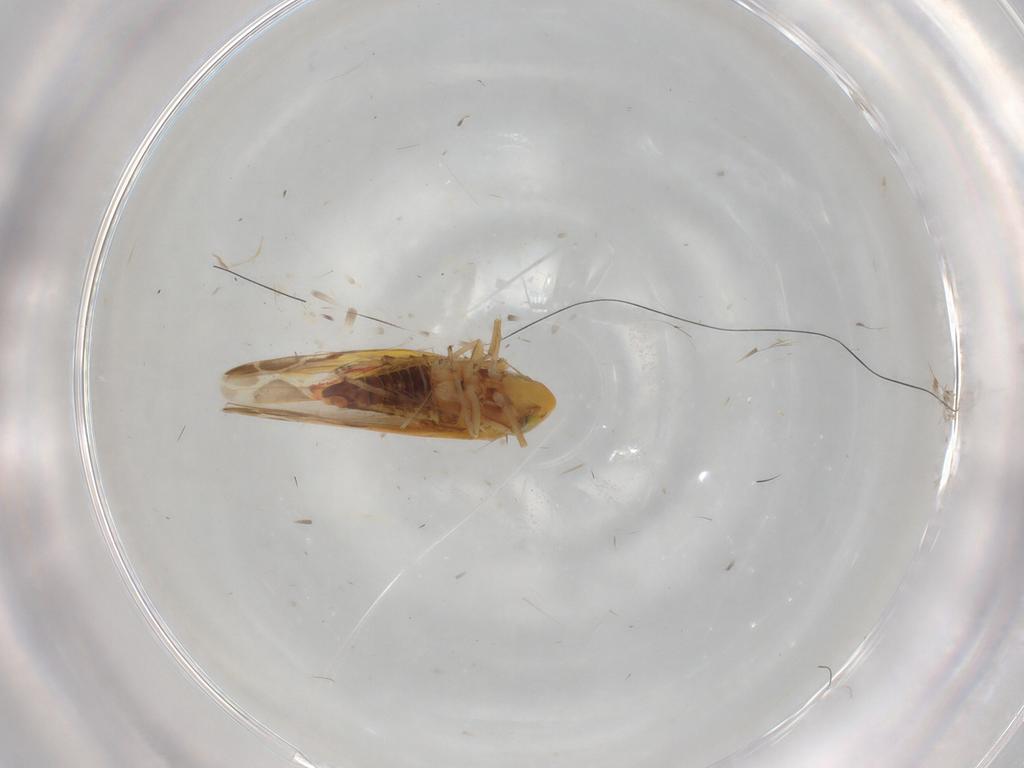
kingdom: Animalia
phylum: Arthropoda
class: Insecta
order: Hemiptera
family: Cicadellidae
